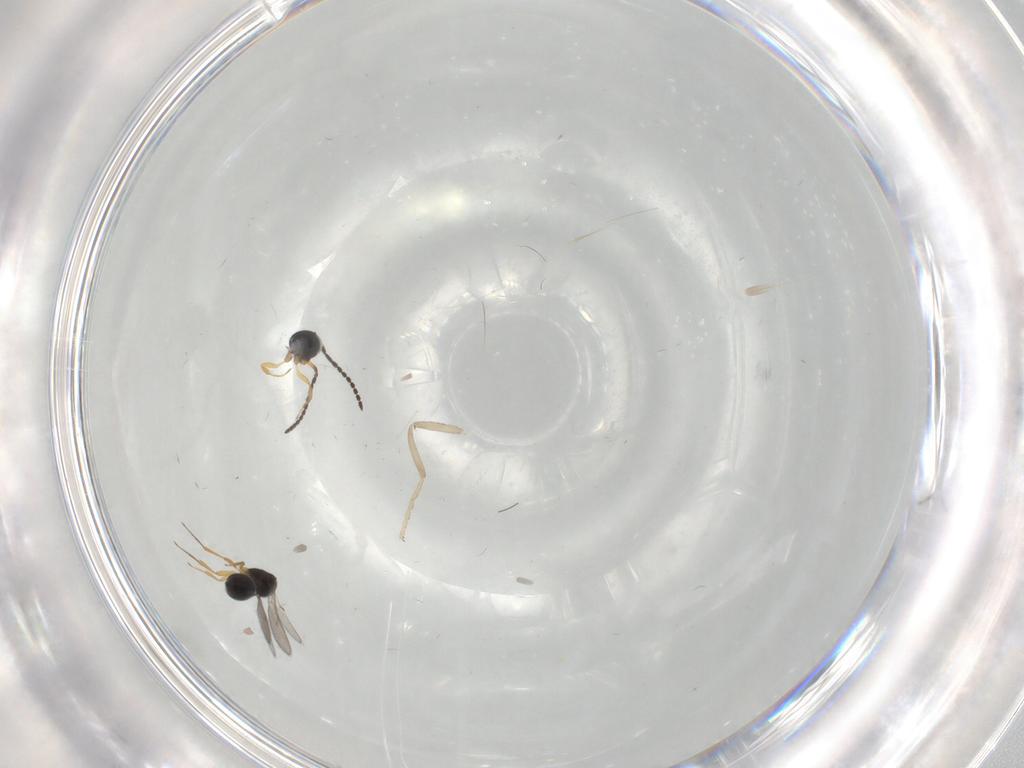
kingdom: Animalia
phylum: Arthropoda
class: Insecta
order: Hymenoptera
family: Scelionidae
